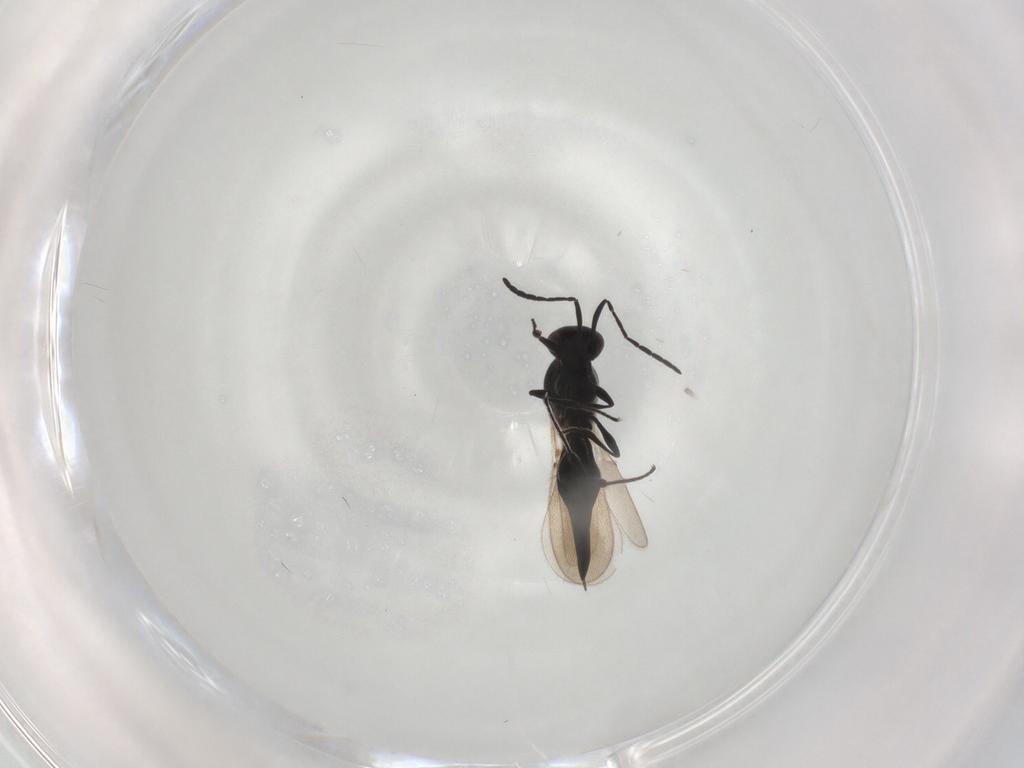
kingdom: Animalia
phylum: Arthropoda
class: Insecta
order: Hymenoptera
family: Platygastridae
